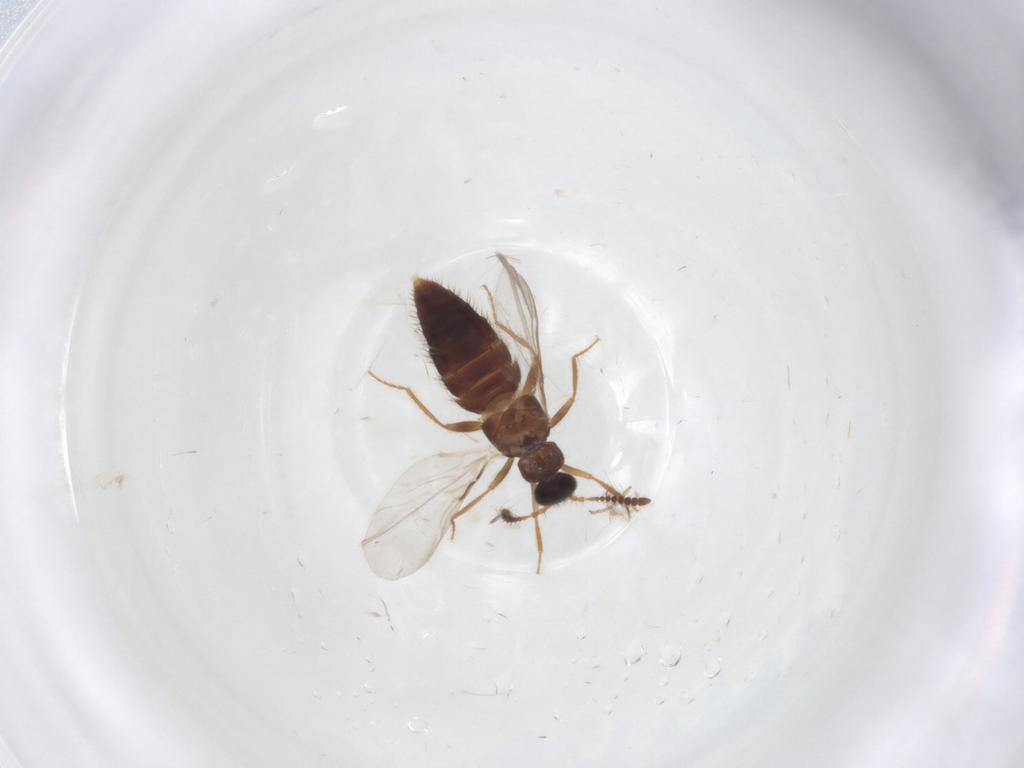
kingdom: Animalia
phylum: Arthropoda
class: Insecta
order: Coleoptera
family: Staphylinidae
